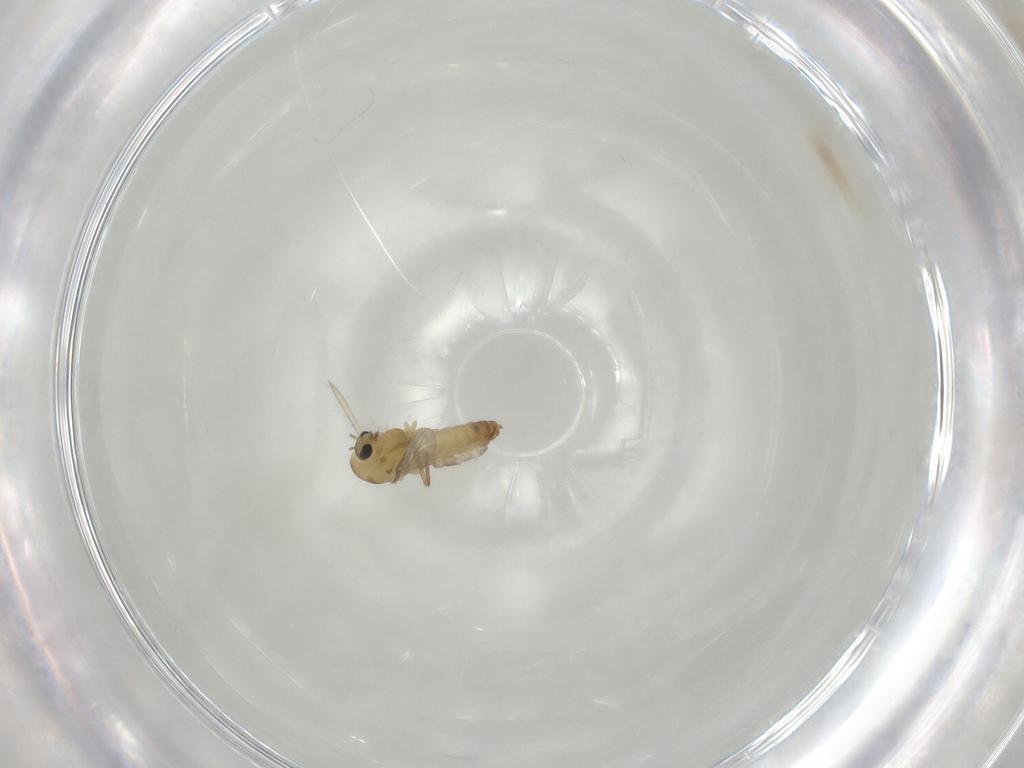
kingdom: Animalia
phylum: Arthropoda
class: Insecta
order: Diptera
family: Chironomidae
